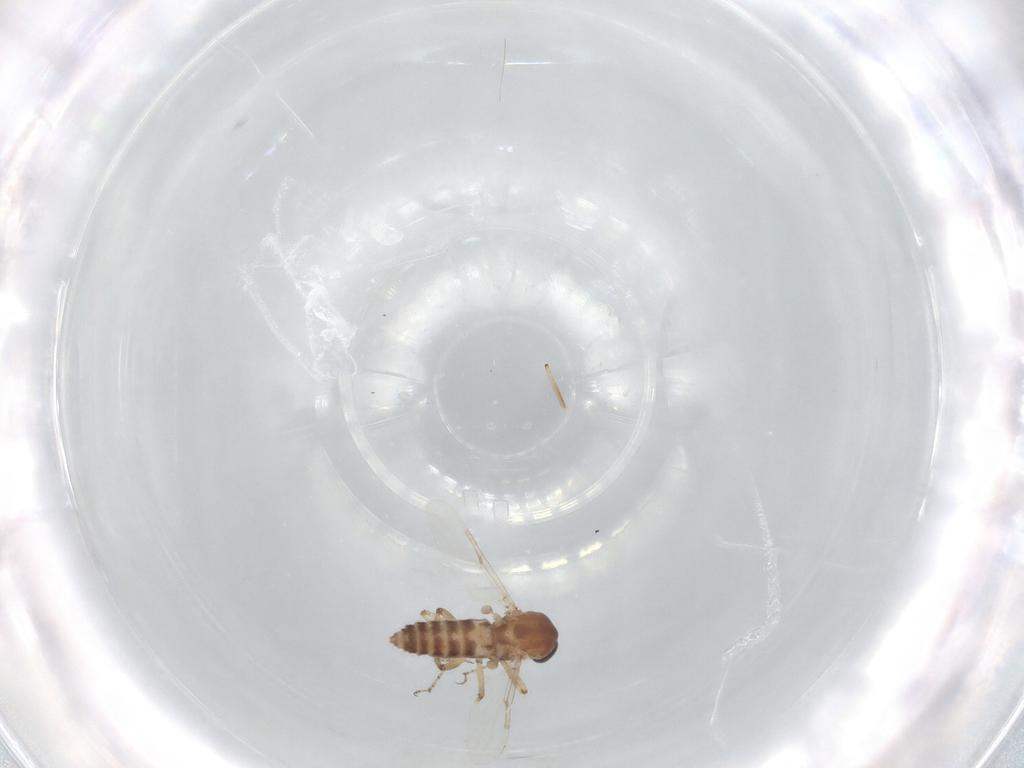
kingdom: Animalia
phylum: Arthropoda
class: Insecta
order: Diptera
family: Ceratopogonidae
